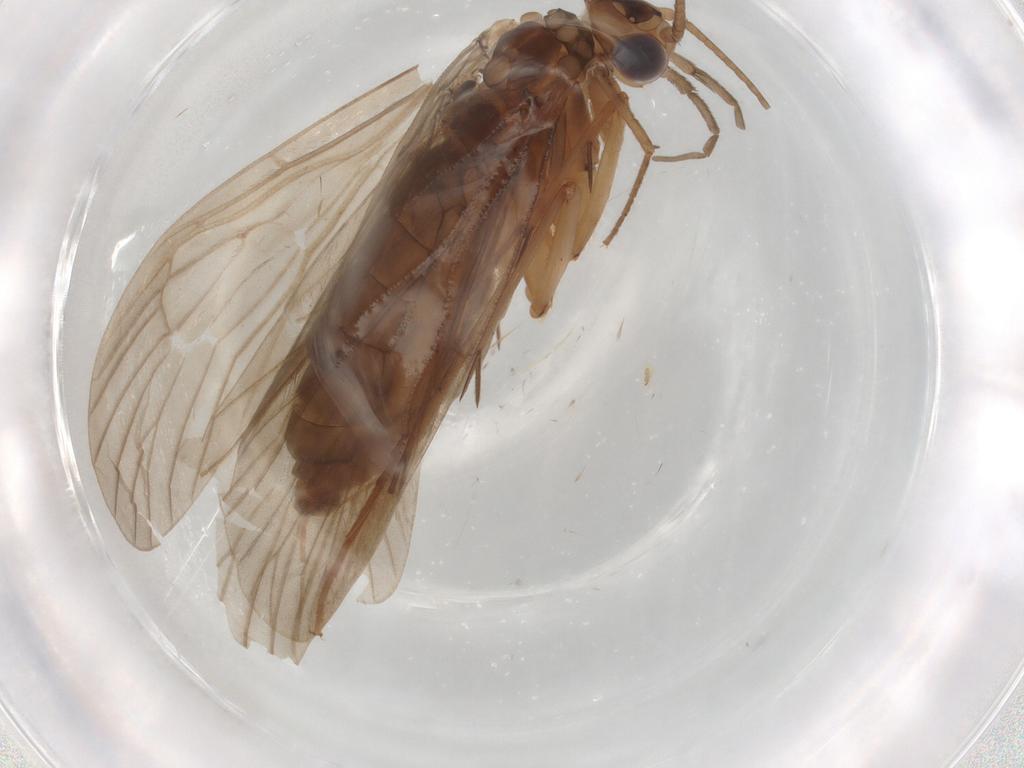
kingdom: Animalia
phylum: Arthropoda
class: Insecta
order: Trichoptera
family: Philopotamidae
